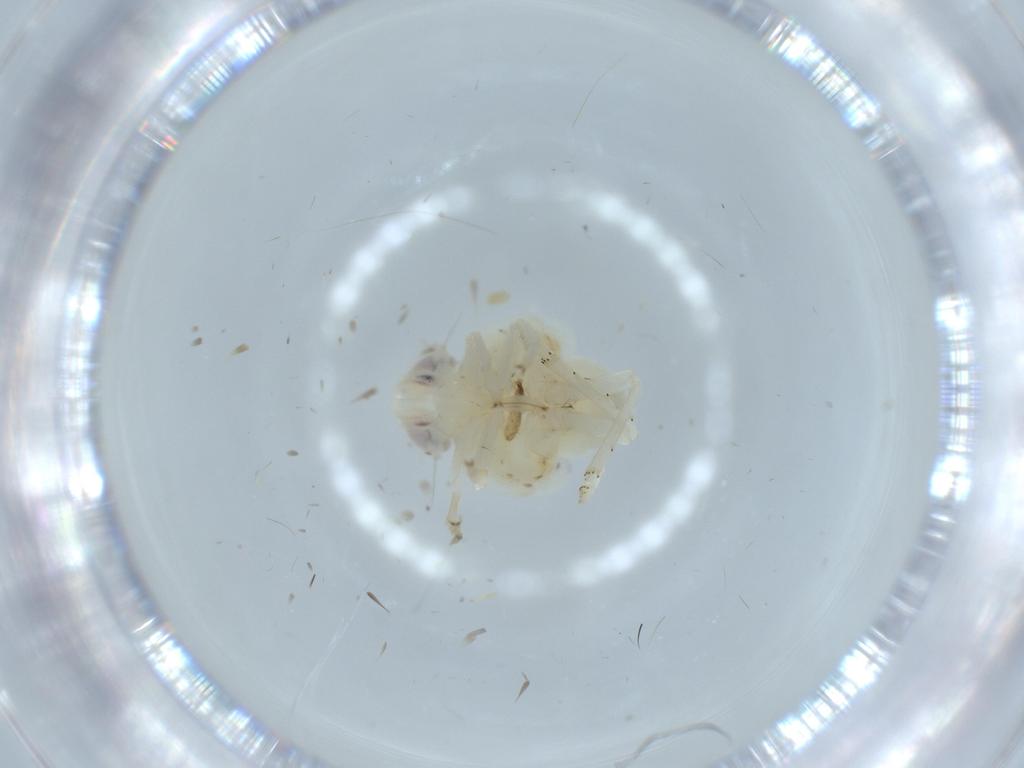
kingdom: Animalia
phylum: Arthropoda
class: Insecta
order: Hemiptera
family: Nogodinidae
